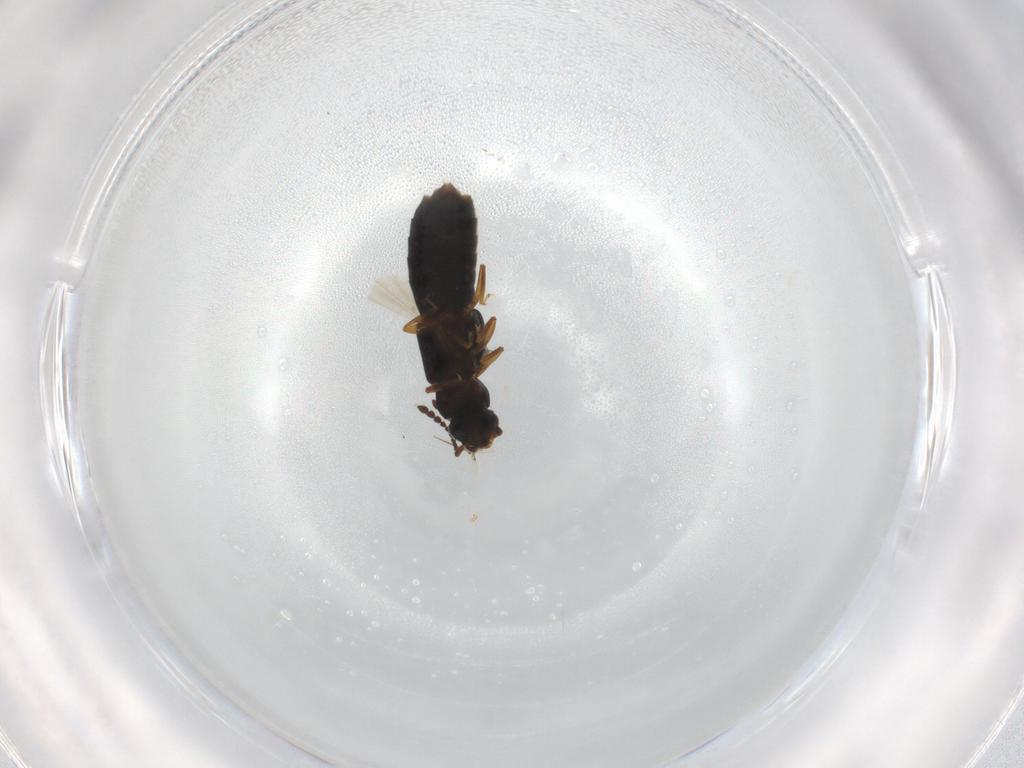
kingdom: Animalia
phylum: Arthropoda
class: Insecta
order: Coleoptera
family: Staphylinidae
